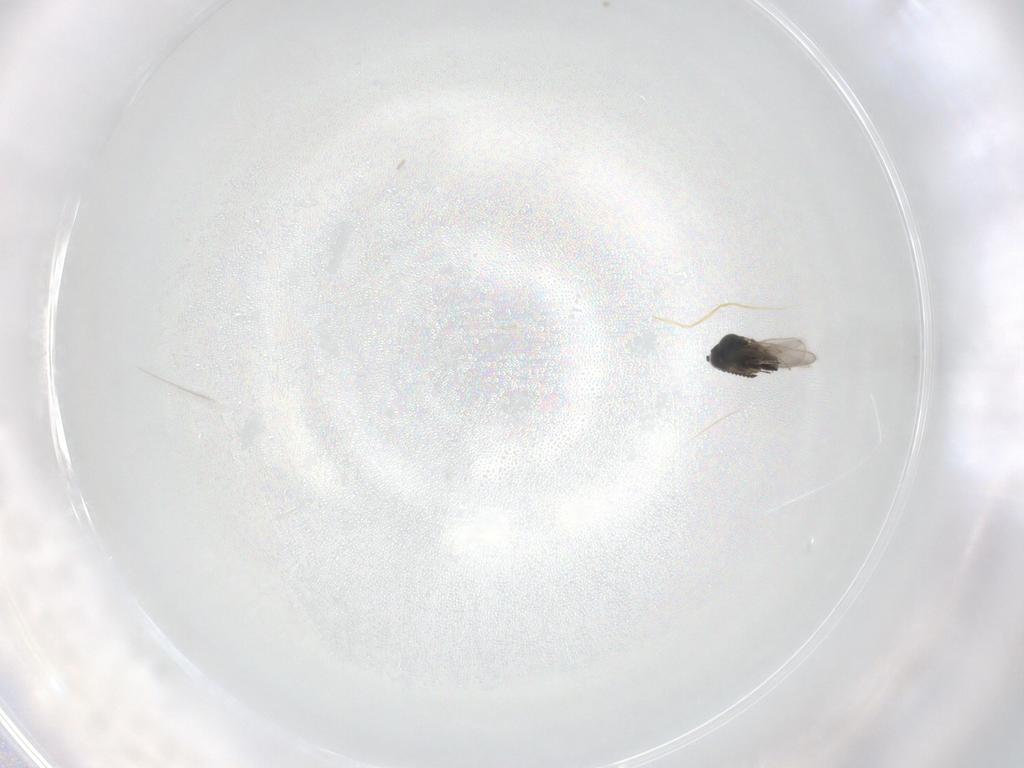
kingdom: Animalia
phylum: Arthropoda
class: Insecta
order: Hymenoptera
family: Scelionidae
